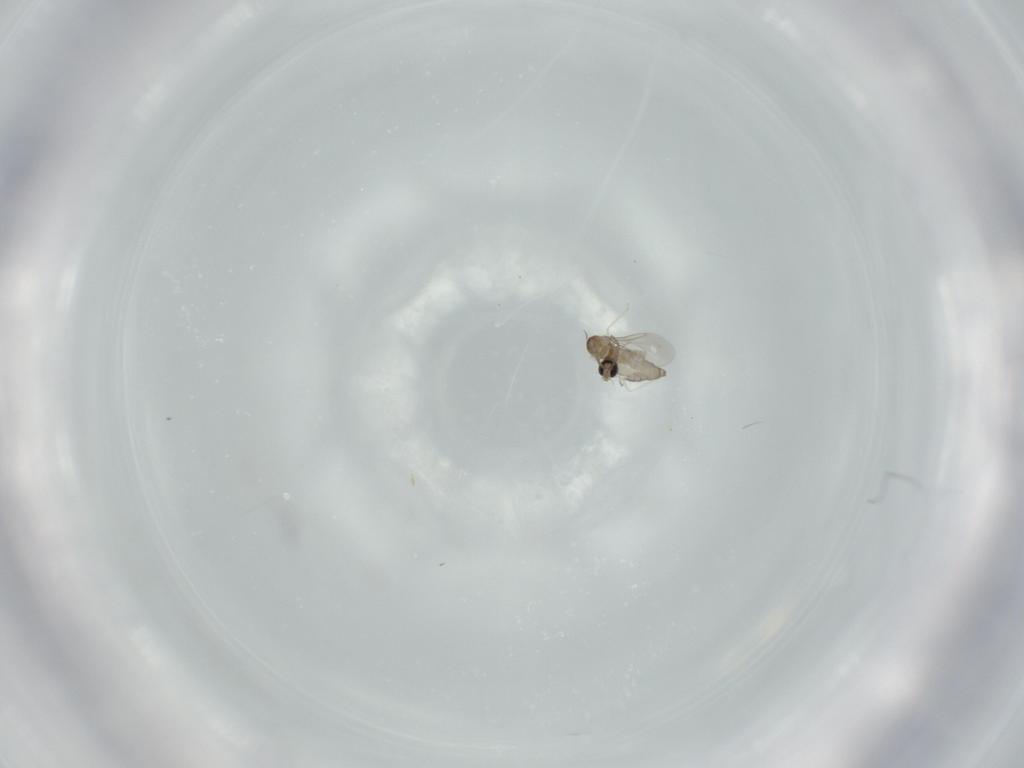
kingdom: Animalia
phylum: Arthropoda
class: Insecta
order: Diptera
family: Cecidomyiidae
